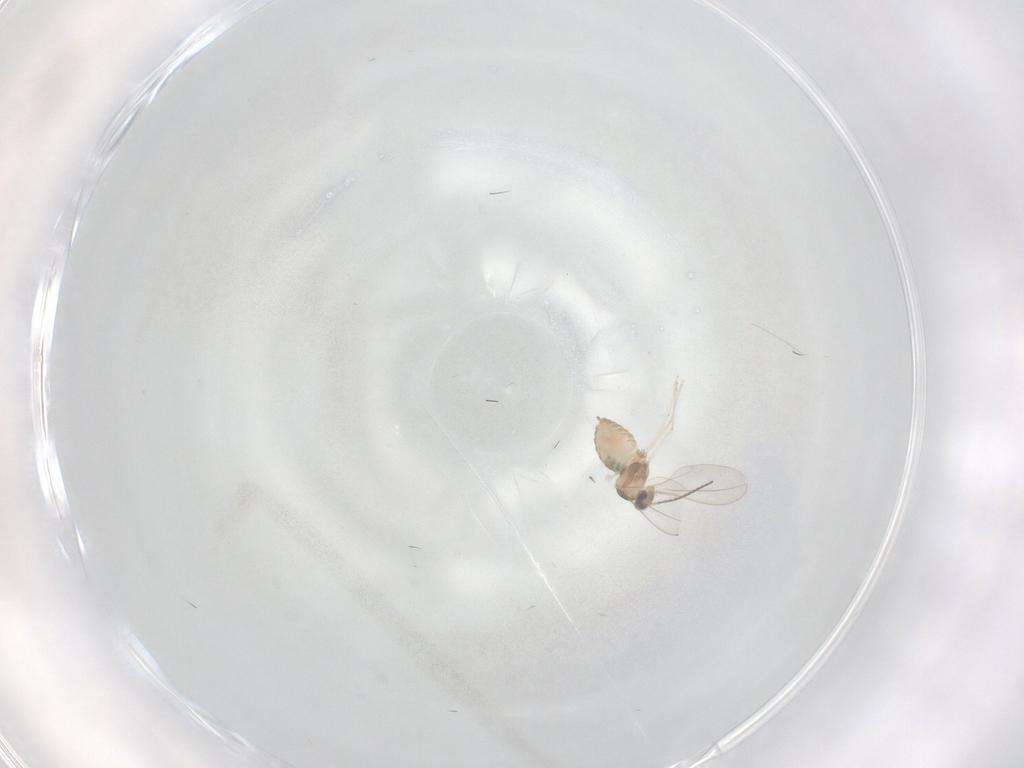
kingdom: Animalia
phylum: Arthropoda
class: Insecta
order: Diptera
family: Cecidomyiidae
